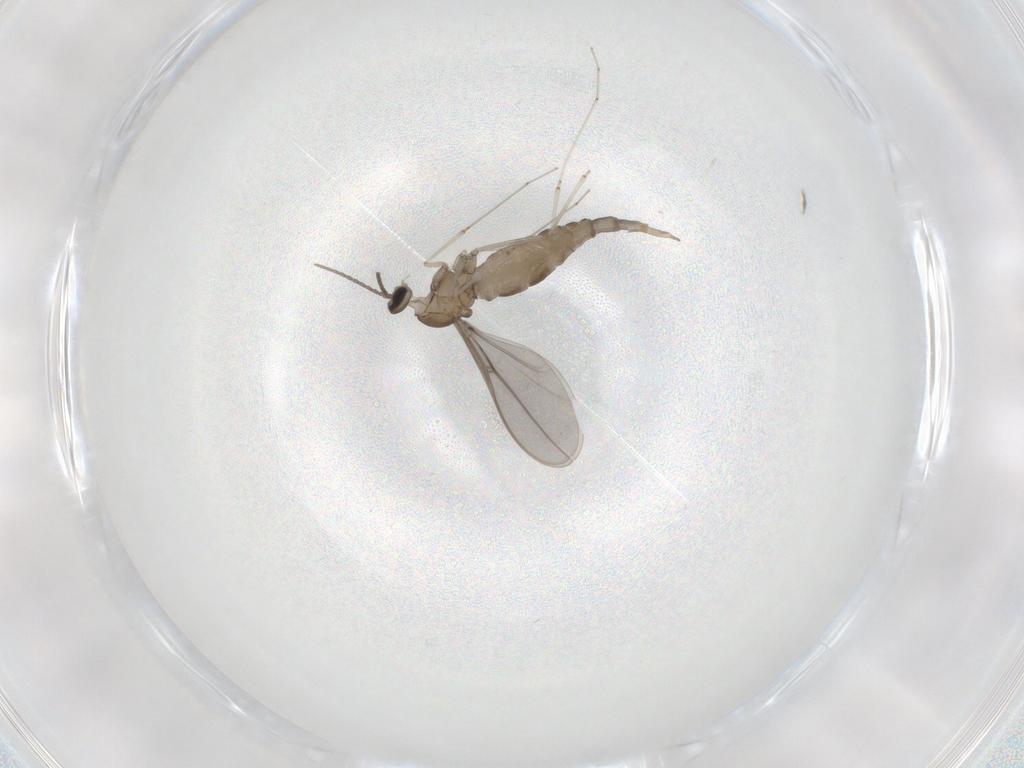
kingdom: Animalia
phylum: Arthropoda
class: Insecta
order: Diptera
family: Cecidomyiidae
